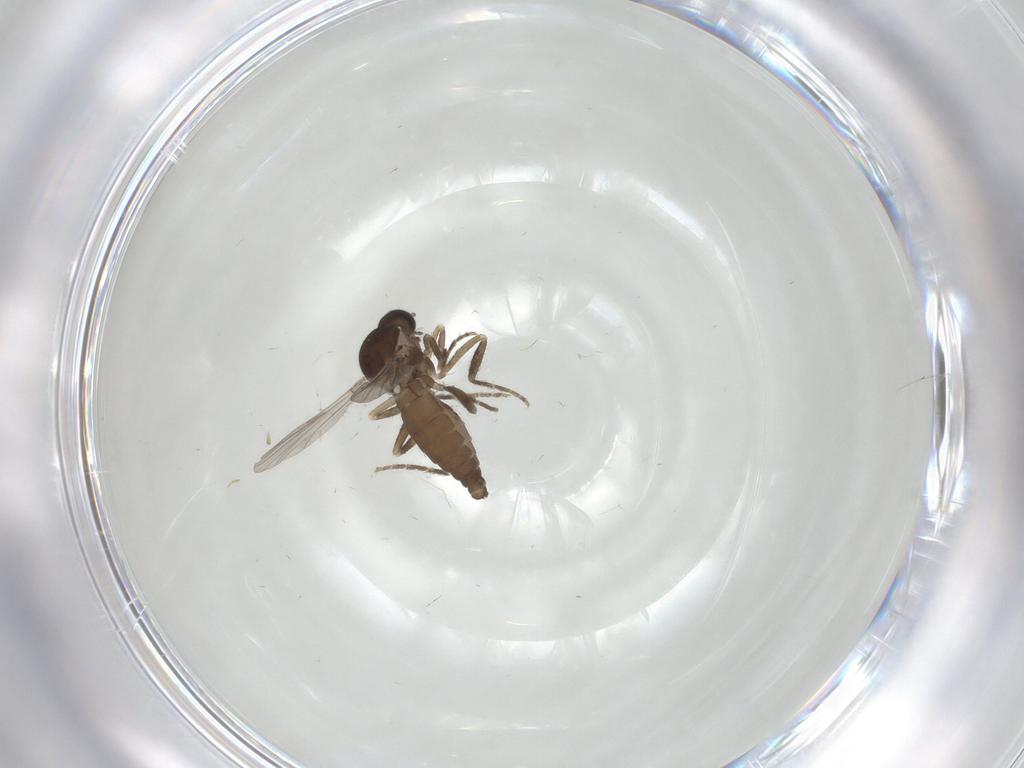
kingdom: Animalia
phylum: Arthropoda
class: Insecta
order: Diptera
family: Ceratopogonidae
